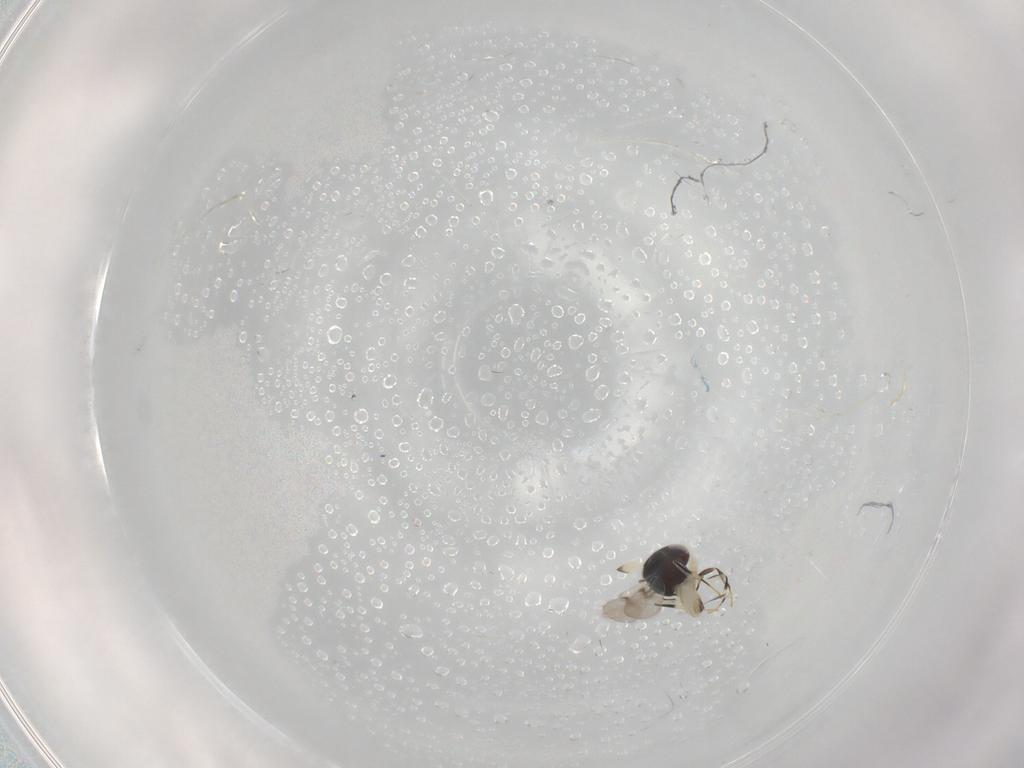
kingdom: Animalia
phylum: Arthropoda
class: Insecta
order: Hymenoptera
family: Scelionidae
